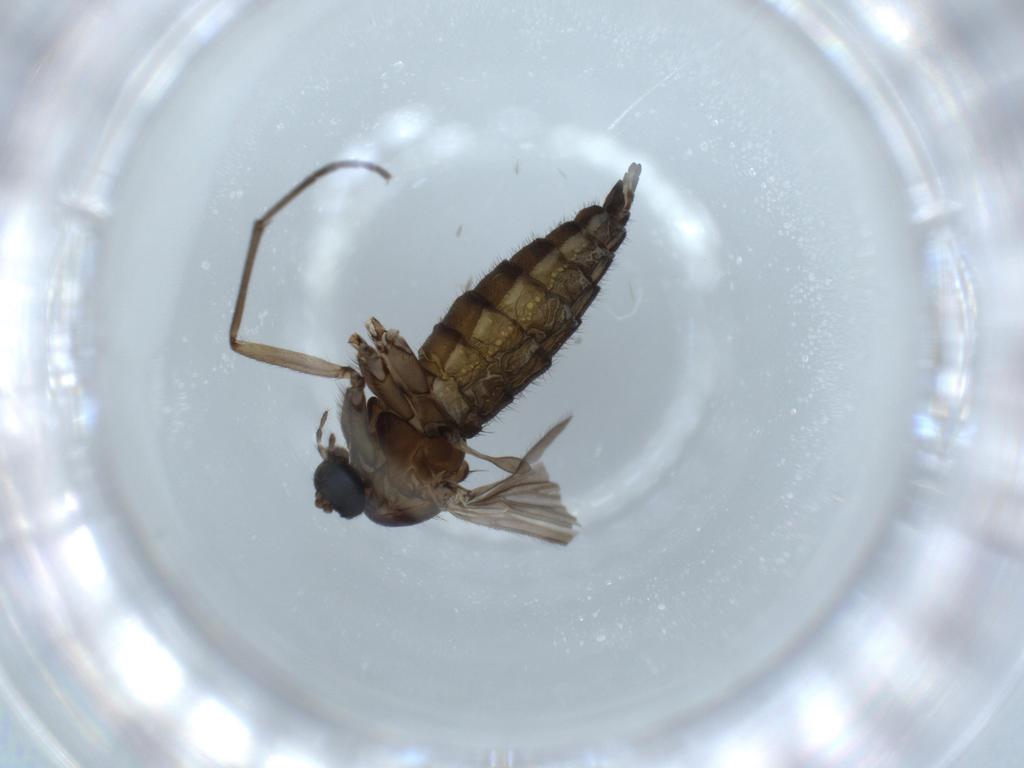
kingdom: Animalia
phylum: Arthropoda
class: Insecta
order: Diptera
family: Sciaridae
